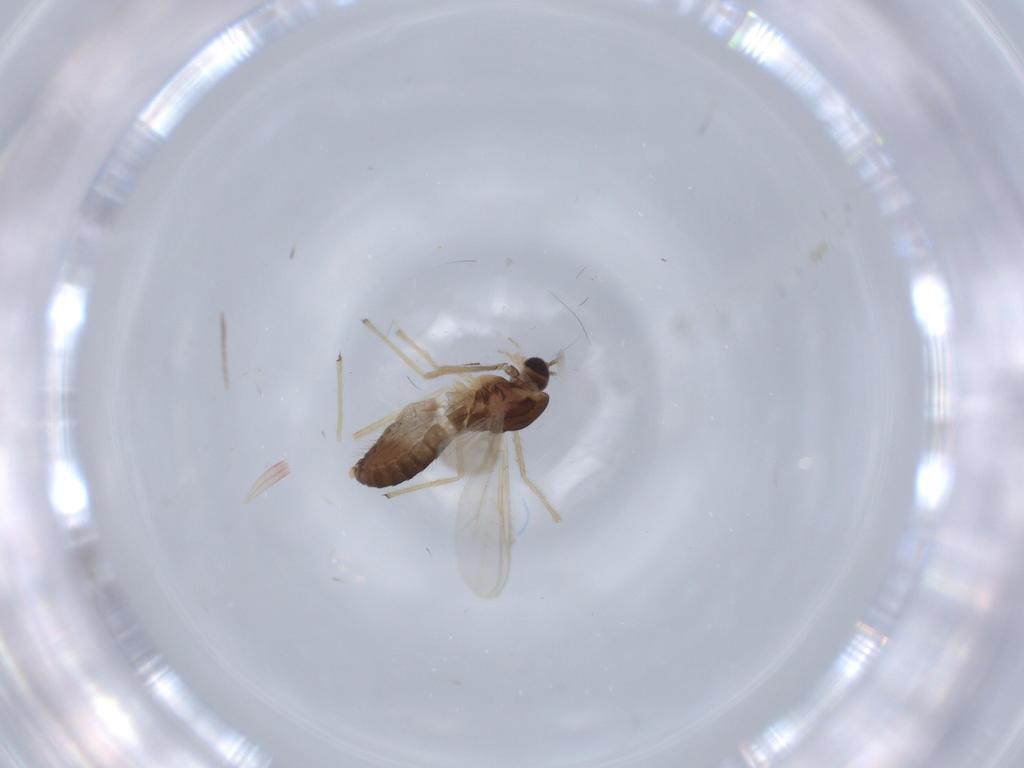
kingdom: Animalia
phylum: Arthropoda
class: Insecta
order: Diptera
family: Chironomidae
